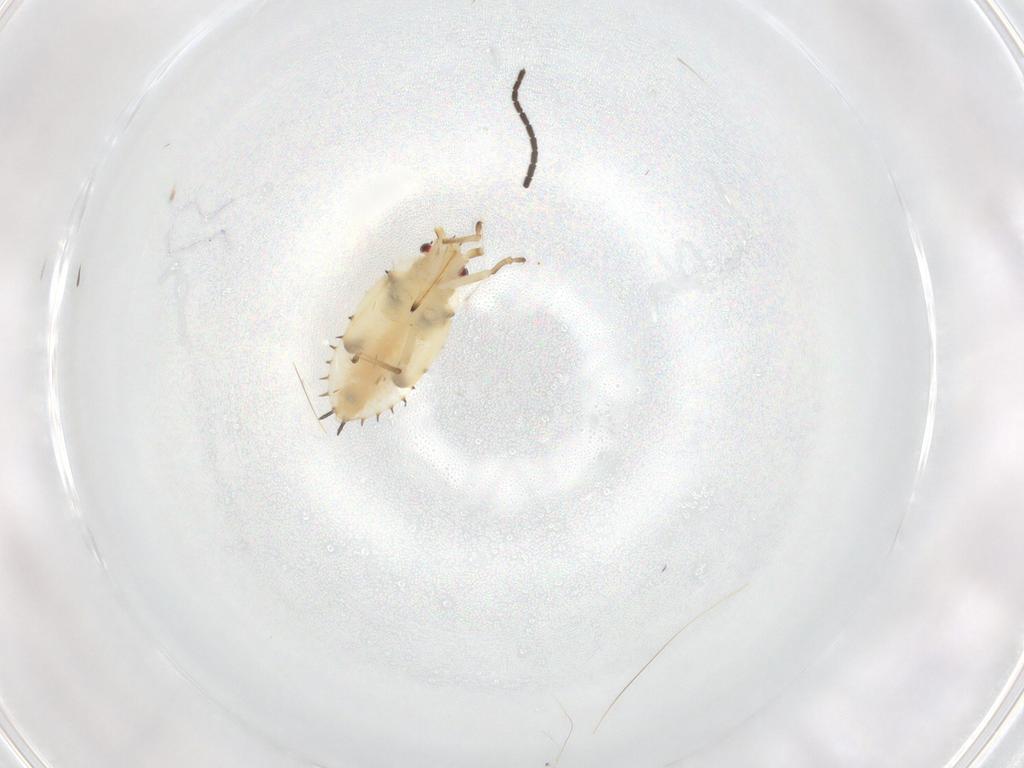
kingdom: Animalia
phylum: Arthropoda
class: Insecta
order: Hemiptera
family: Tingidae
